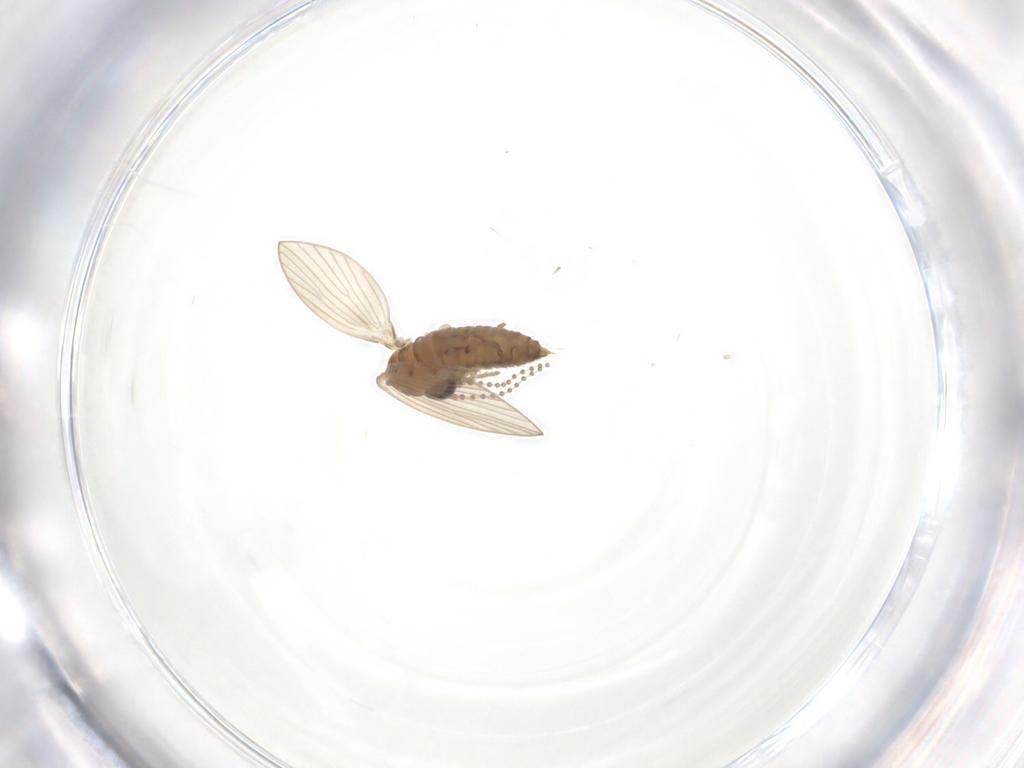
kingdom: Animalia
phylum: Arthropoda
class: Insecta
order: Diptera
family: Psychodidae
